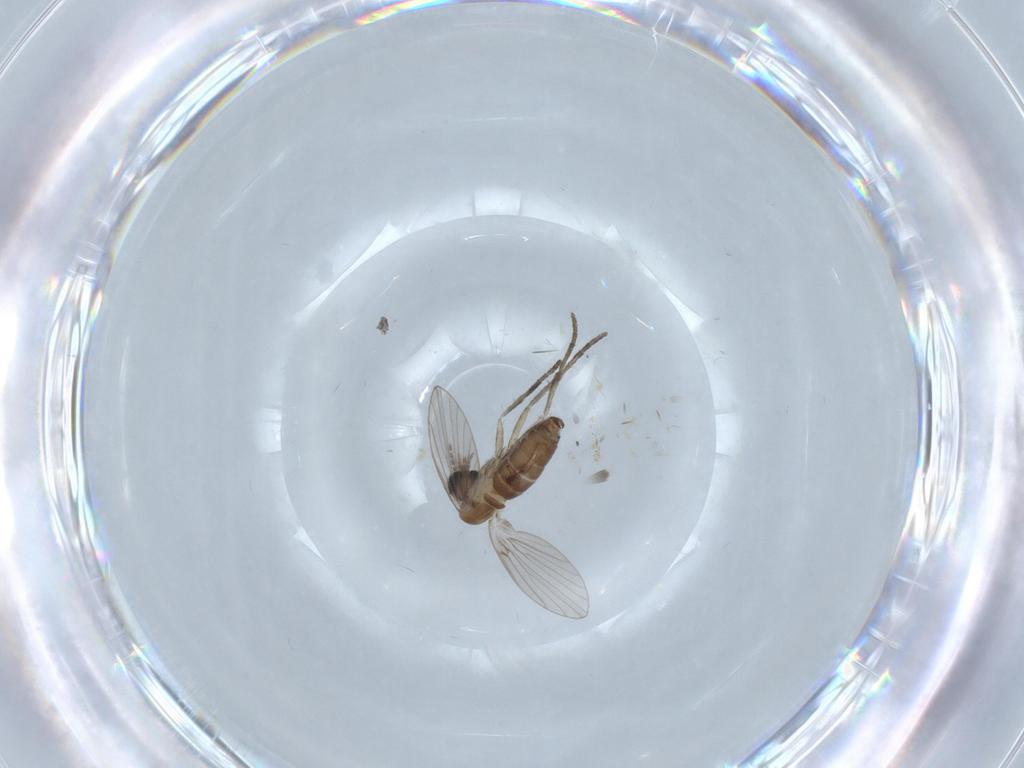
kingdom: Animalia
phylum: Arthropoda
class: Insecta
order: Diptera
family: Psychodidae
